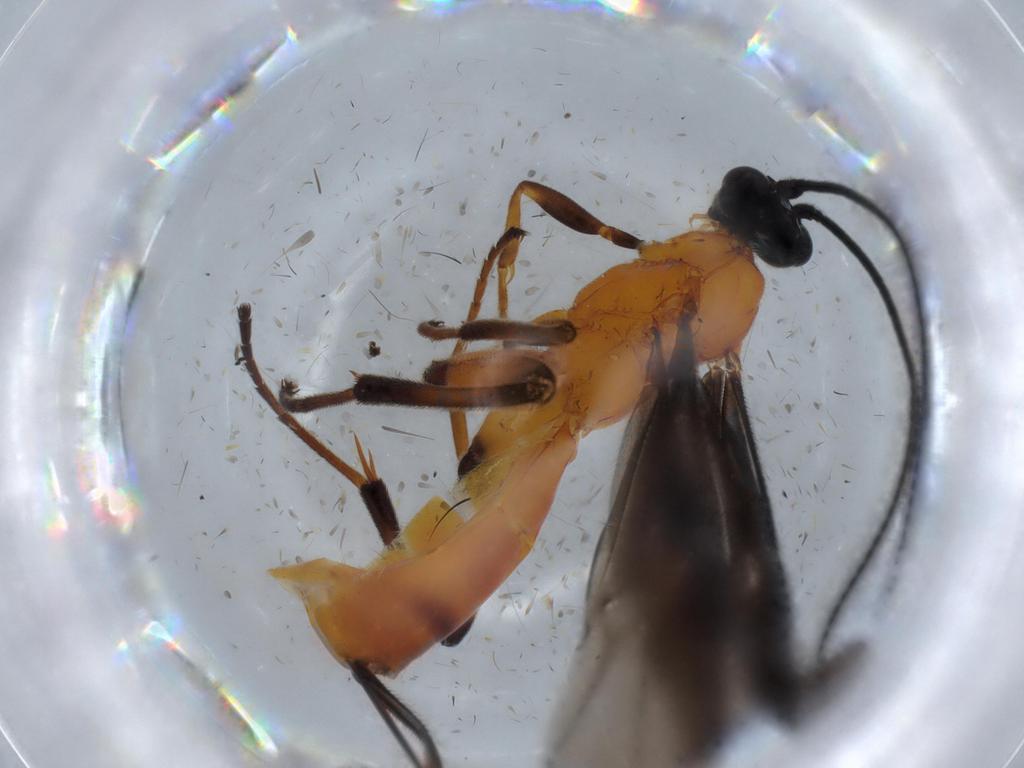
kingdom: Animalia
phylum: Arthropoda
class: Insecta
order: Hymenoptera
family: Braconidae
